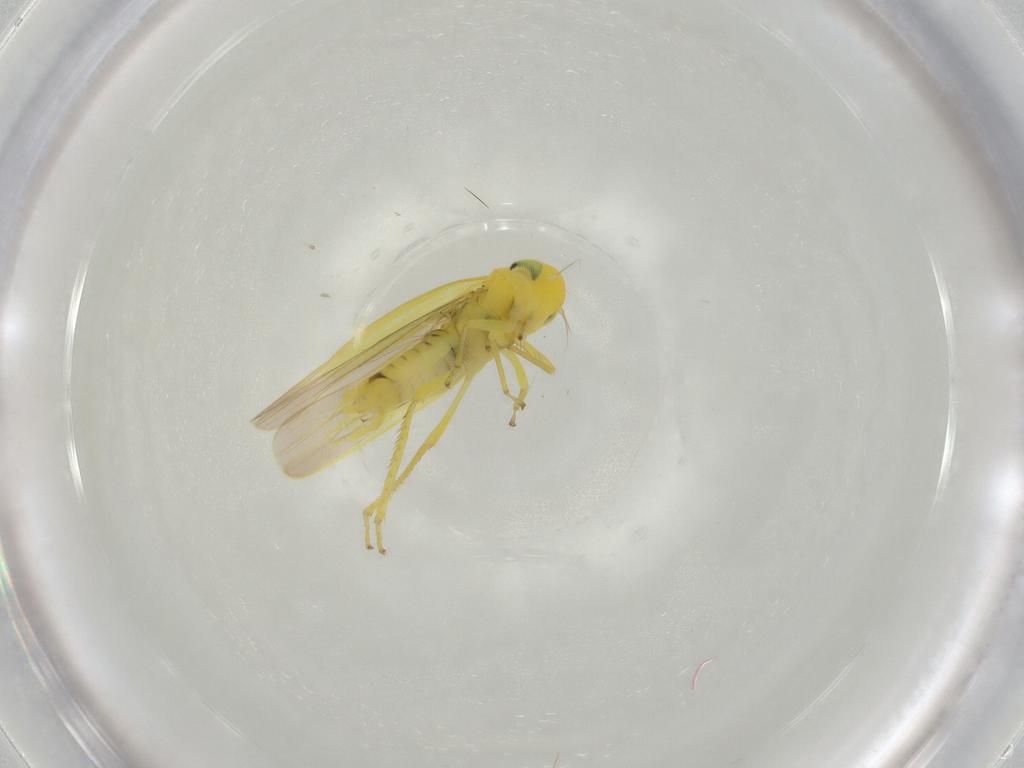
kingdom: Animalia
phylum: Arthropoda
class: Insecta
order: Hemiptera
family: Cicadellidae
